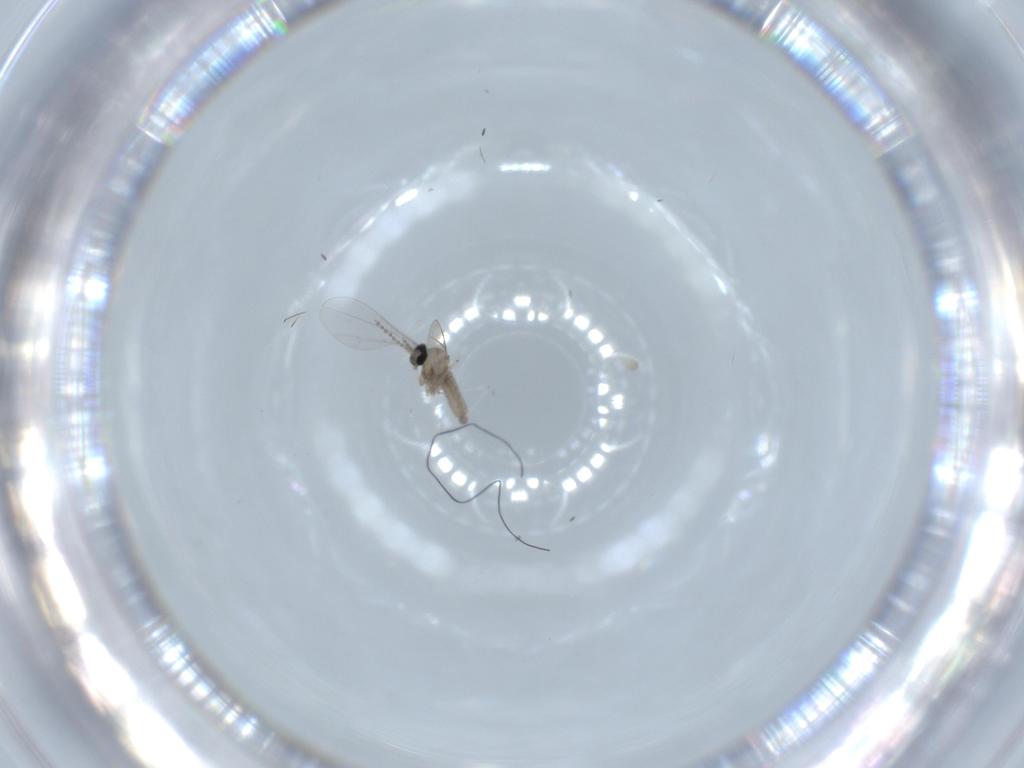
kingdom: Animalia
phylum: Arthropoda
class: Insecta
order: Diptera
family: Cecidomyiidae
